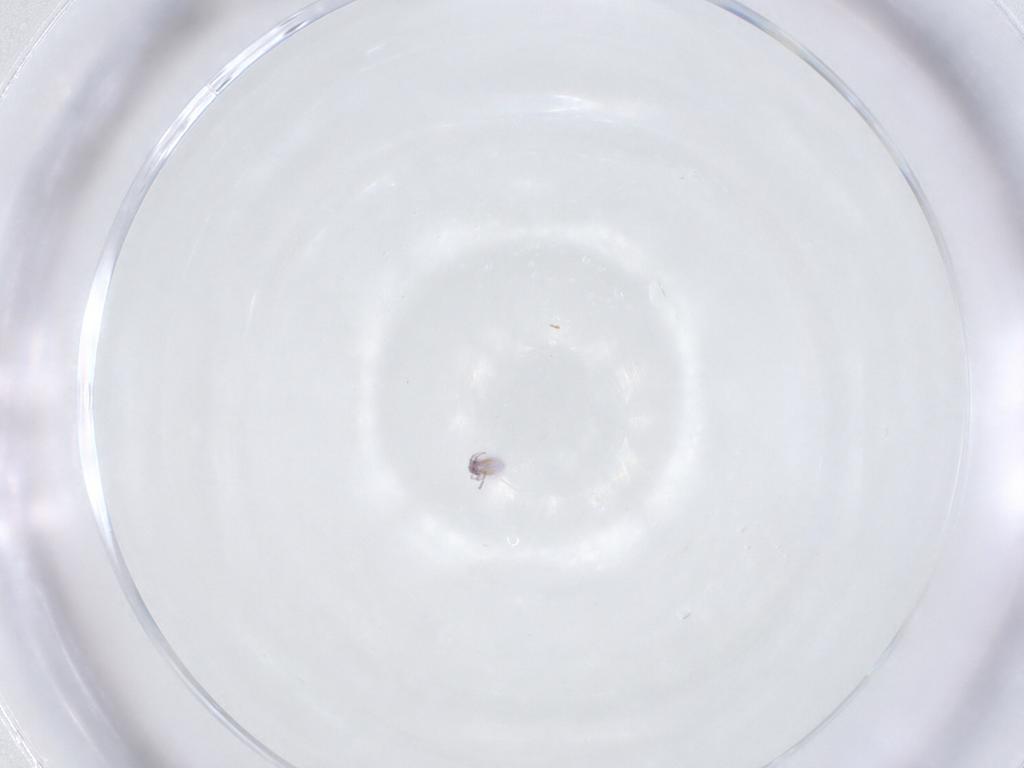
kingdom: Animalia
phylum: Arthropoda
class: Arachnida
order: Trombidiformes
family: Pionidae
